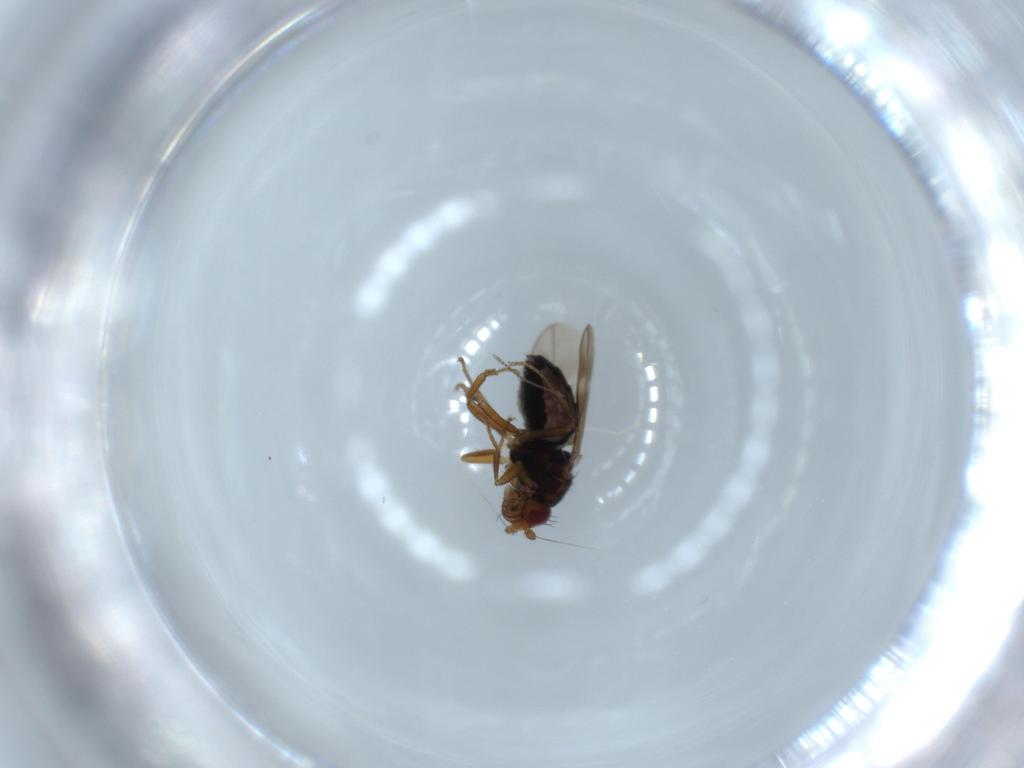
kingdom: Animalia
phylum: Arthropoda
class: Insecta
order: Diptera
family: Sphaeroceridae
